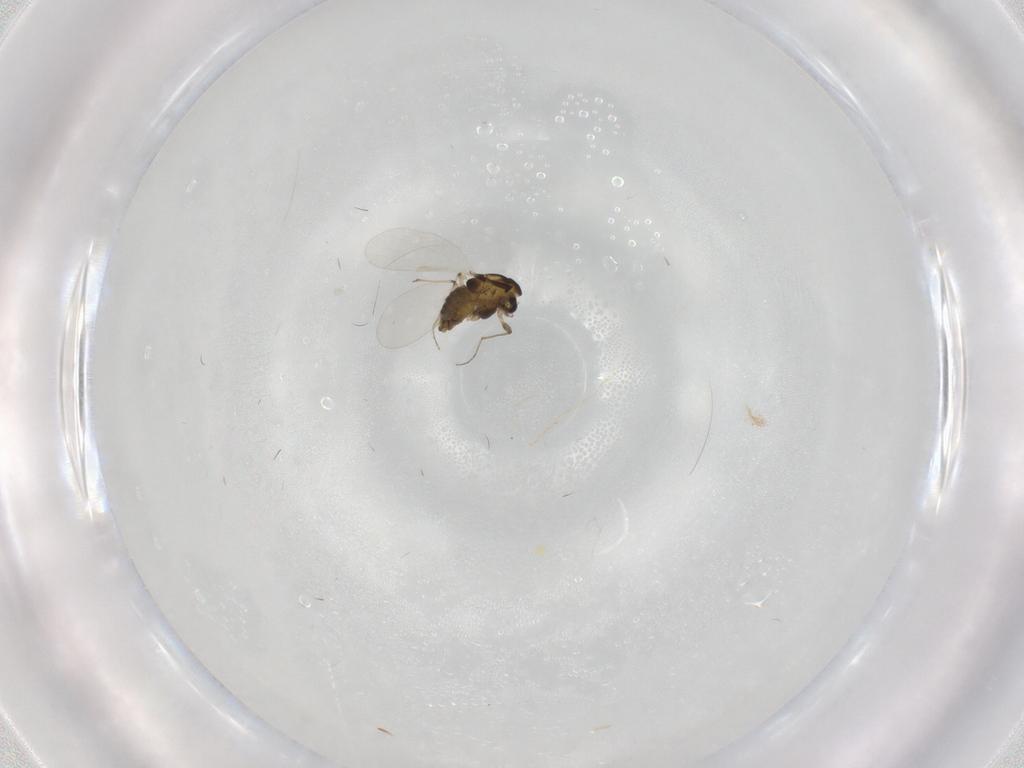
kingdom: Animalia
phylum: Arthropoda
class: Insecta
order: Diptera
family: Chironomidae
